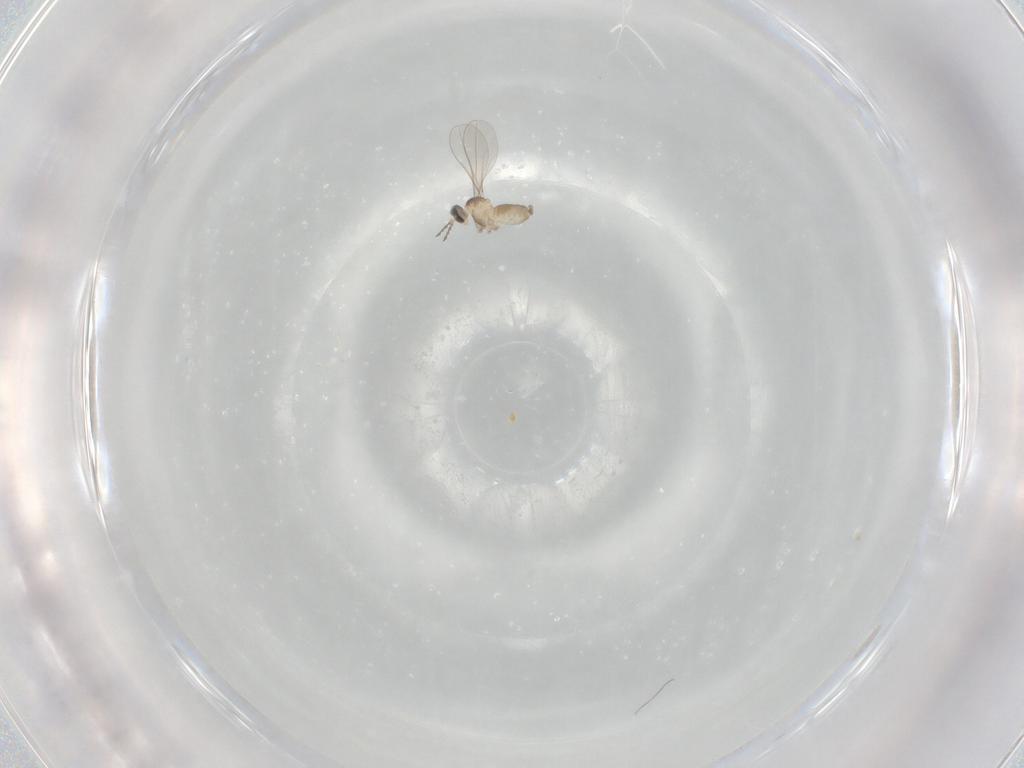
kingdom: Animalia
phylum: Arthropoda
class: Insecta
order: Diptera
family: Cecidomyiidae
